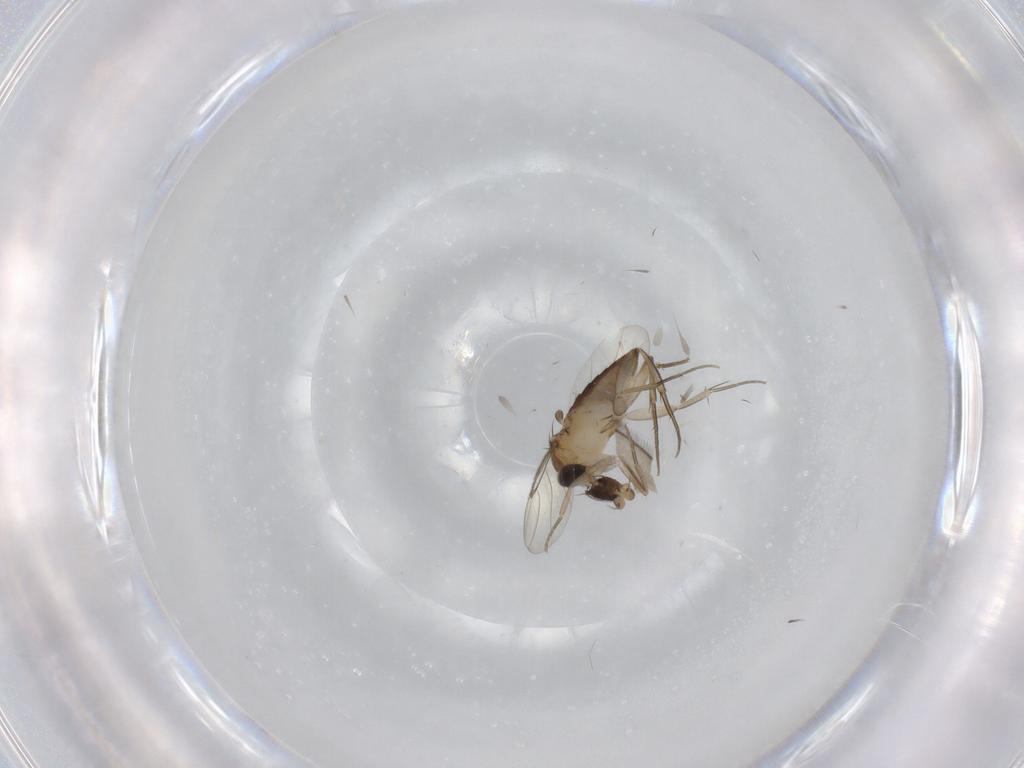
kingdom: Animalia
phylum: Arthropoda
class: Insecta
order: Diptera
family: Phoridae
